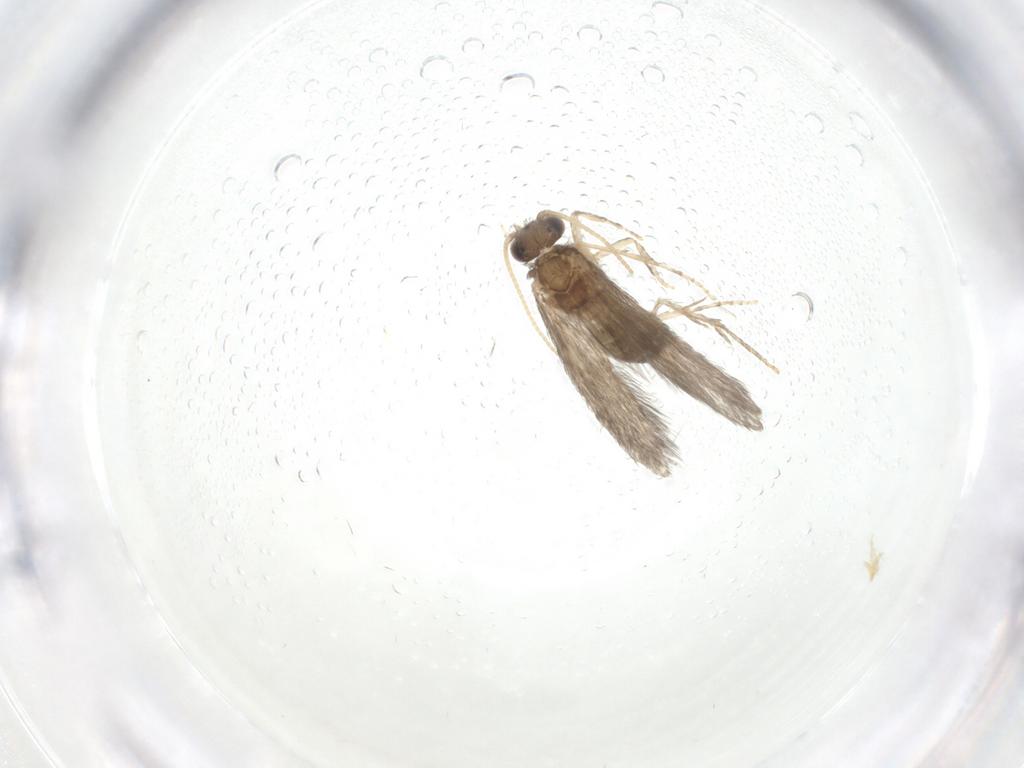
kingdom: Animalia
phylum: Arthropoda
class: Insecta
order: Trichoptera
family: Hydroptilidae
